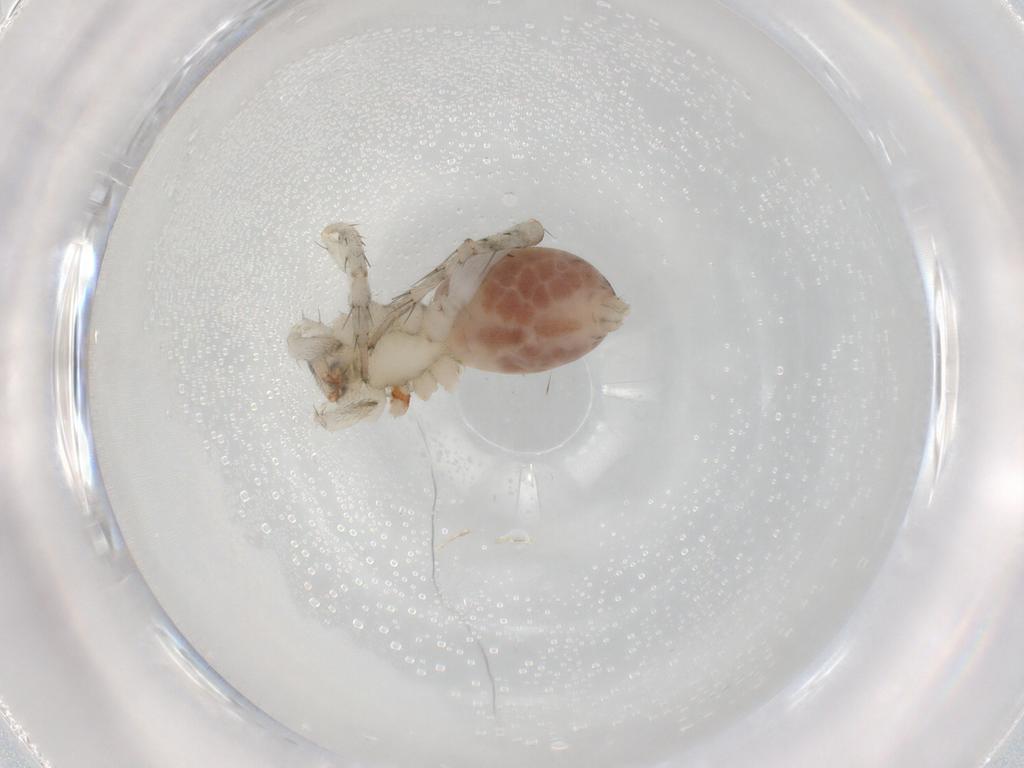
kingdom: Animalia
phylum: Arthropoda
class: Arachnida
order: Araneae
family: Anyphaenidae
